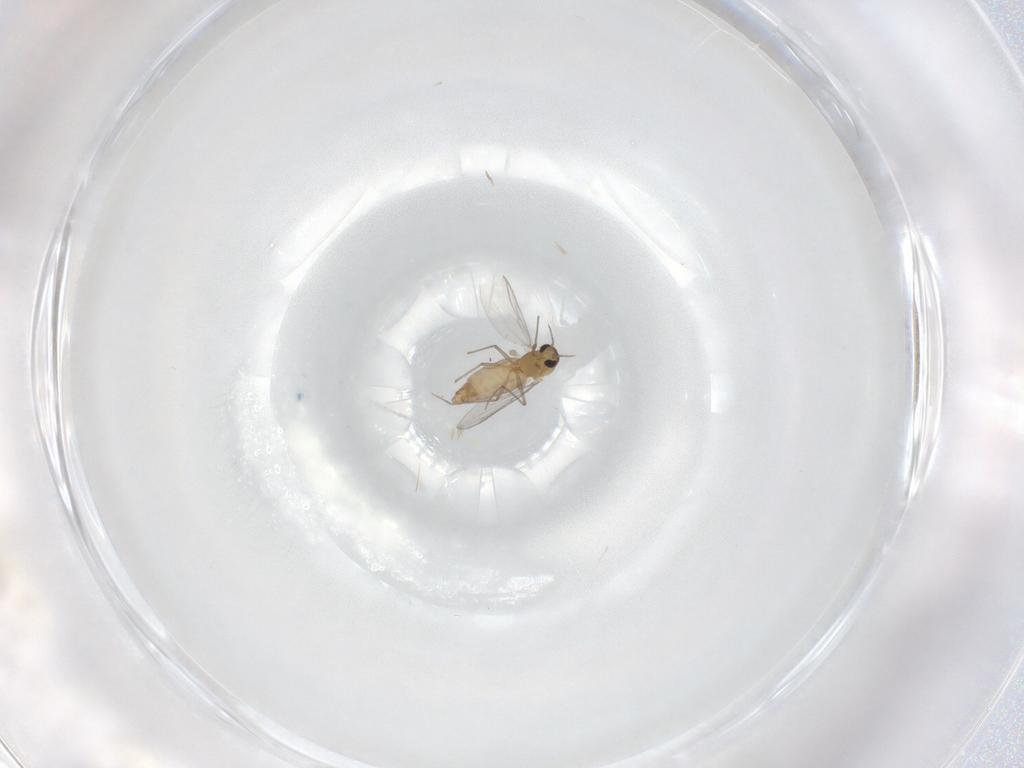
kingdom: Animalia
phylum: Arthropoda
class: Insecta
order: Diptera
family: Chironomidae
